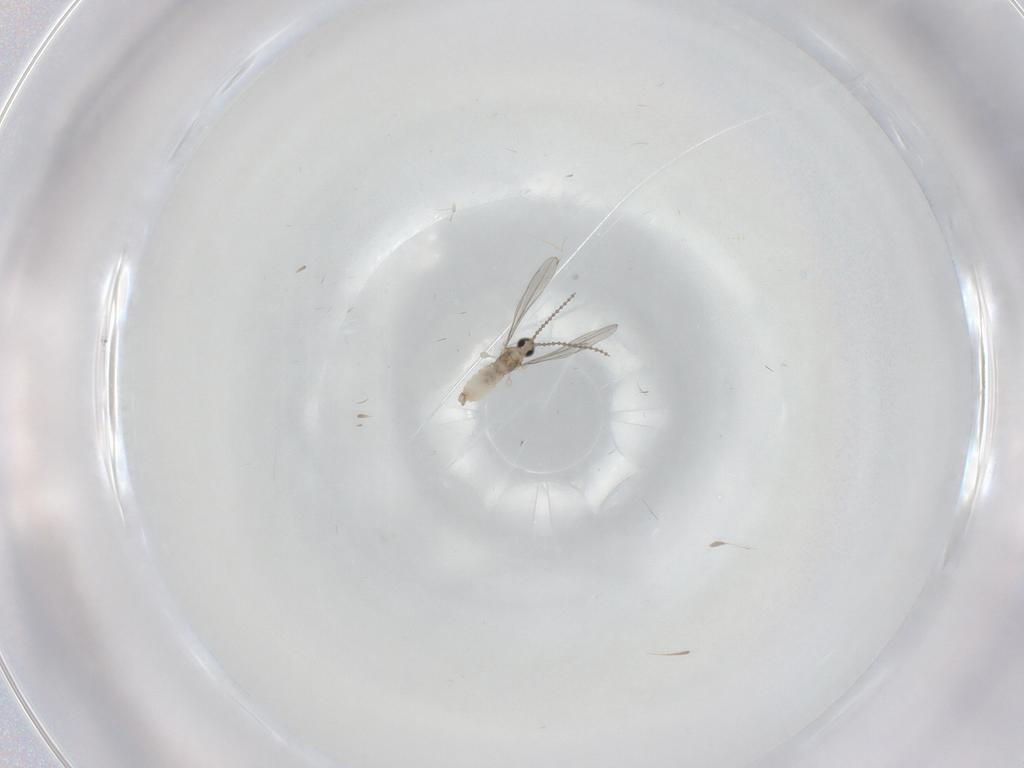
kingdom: Animalia
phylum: Arthropoda
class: Insecta
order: Diptera
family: Cecidomyiidae
